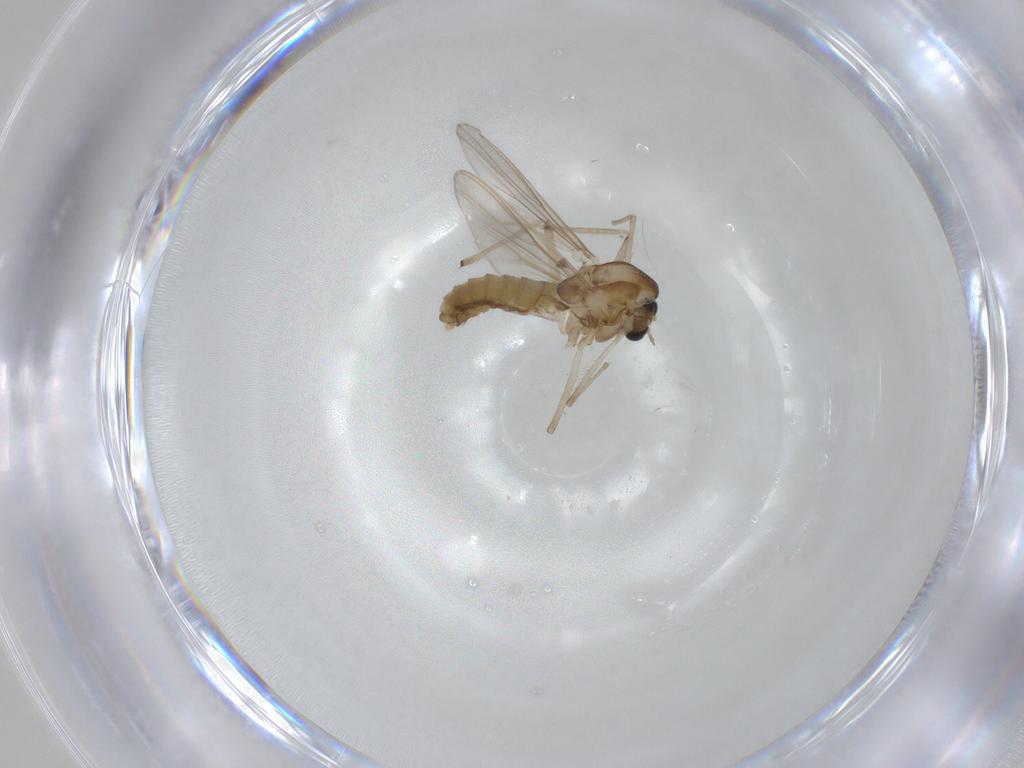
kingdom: Animalia
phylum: Arthropoda
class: Insecta
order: Diptera
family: Chironomidae
